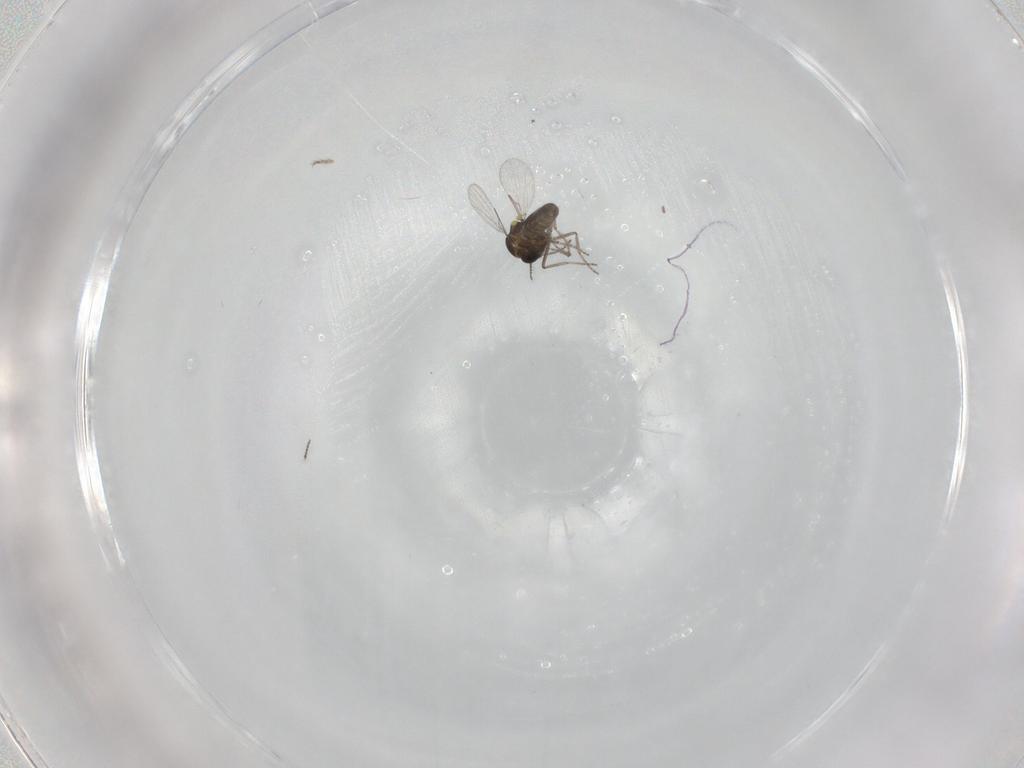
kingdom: Animalia
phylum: Arthropoda
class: Insecta
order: Diptera
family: Ceratopogonidae
